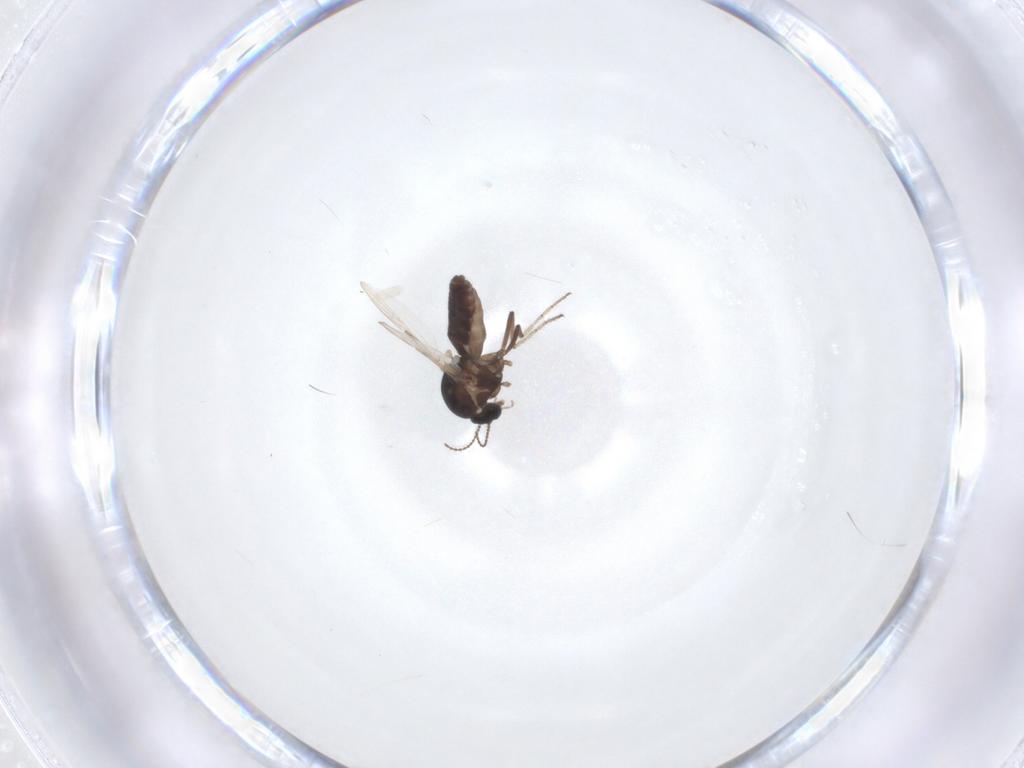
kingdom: Animalia
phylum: Arthropoda
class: Insecta
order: Diptera
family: Ceratopogonidae
